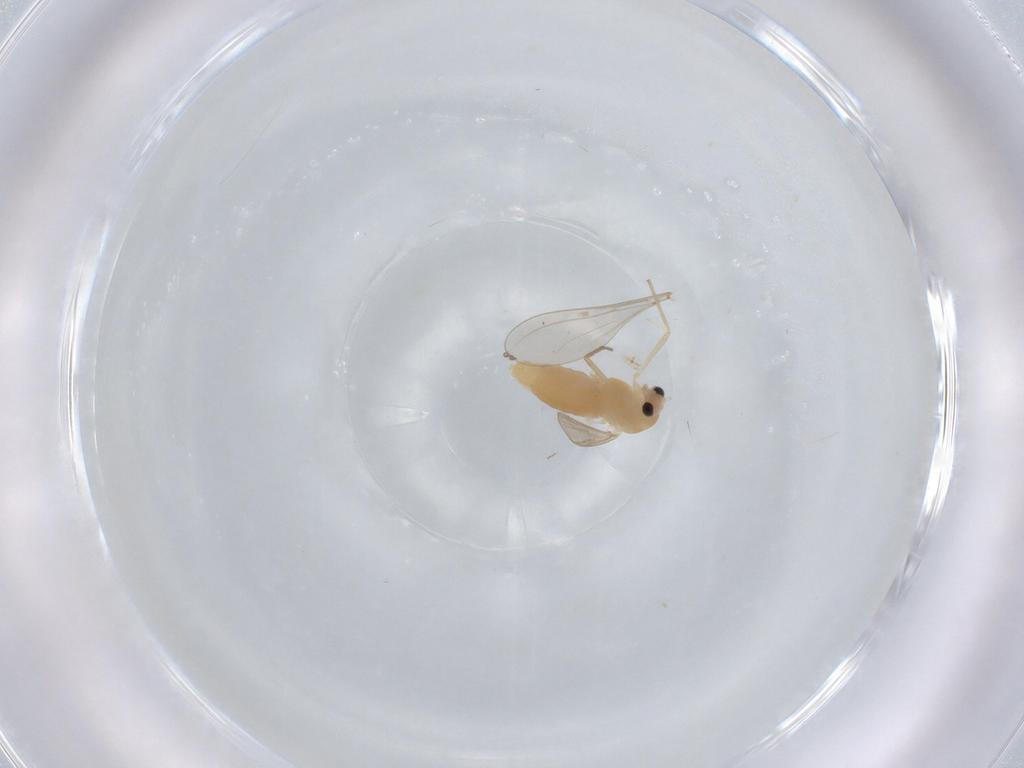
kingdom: Animalia
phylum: Arthropoda
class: Insecta
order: Diptera
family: Chironomidae
